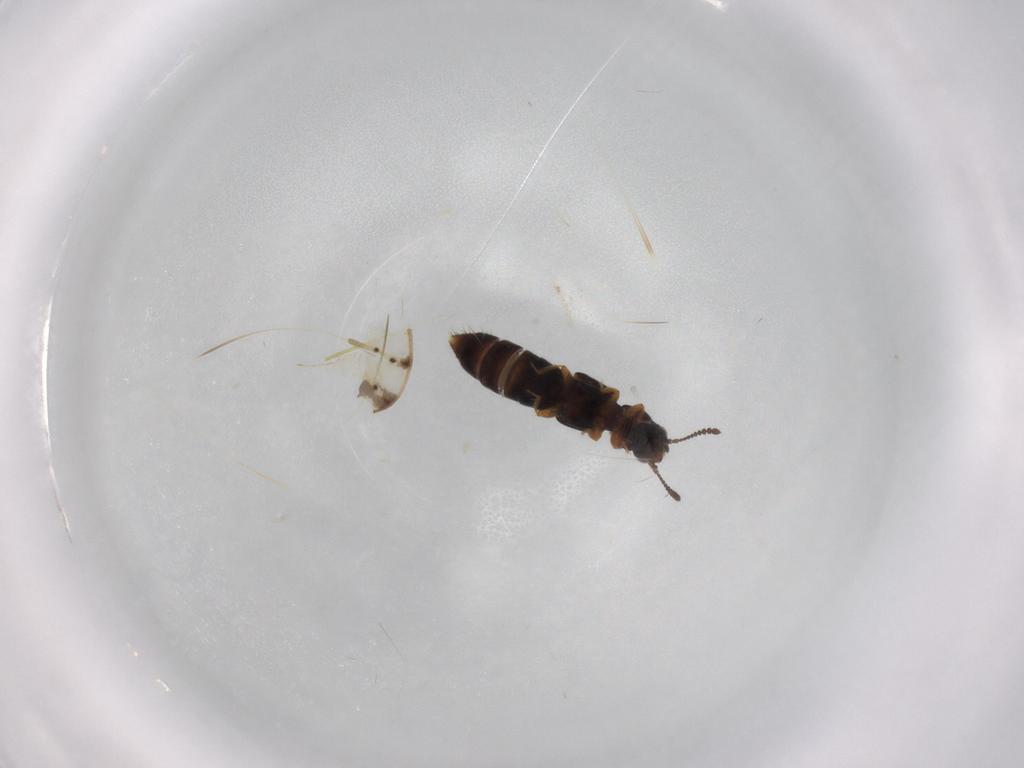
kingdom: Animalia
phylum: Arthropoda
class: Insecta
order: Coleoptera
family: Staphylinidae
